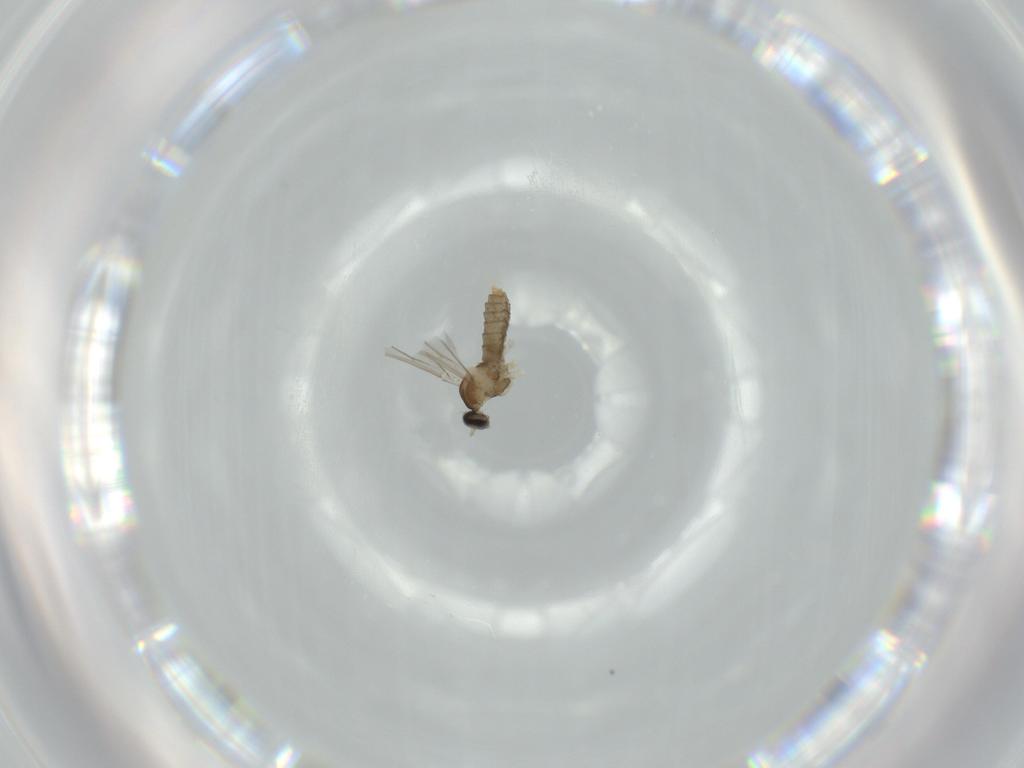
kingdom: Animalia
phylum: Arthropoda
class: Insecta
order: Diptera
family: Cecidomyiidae
